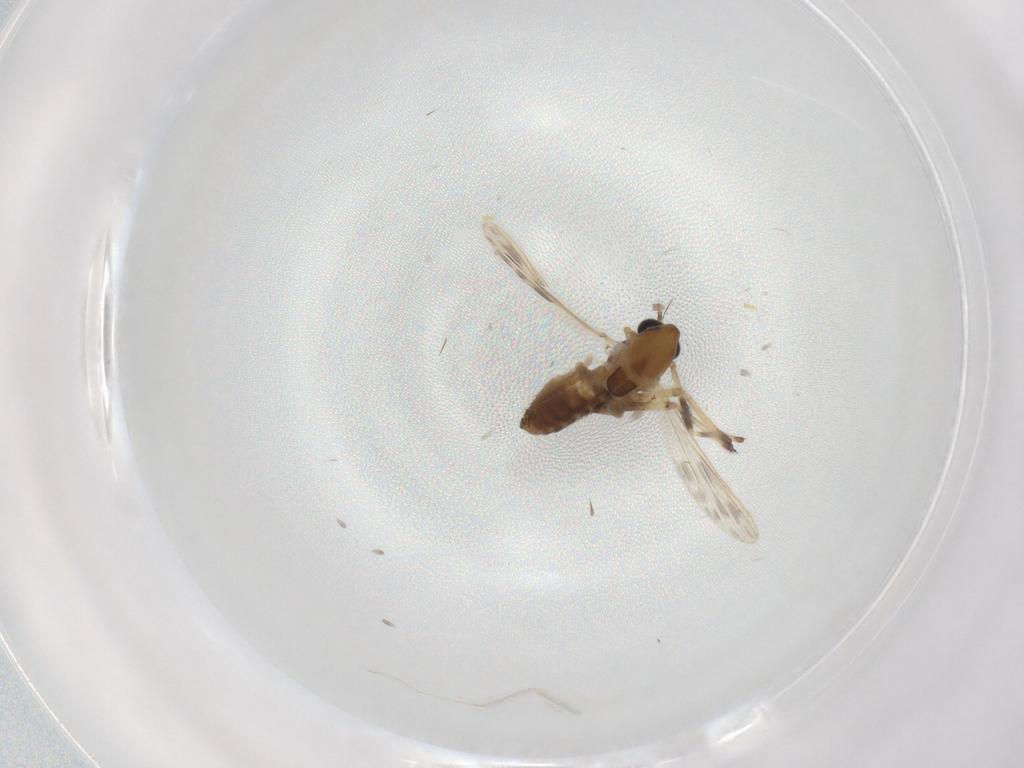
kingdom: Animalia
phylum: Arthropoda
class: Insecta
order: Diptera
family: Chironomidae
